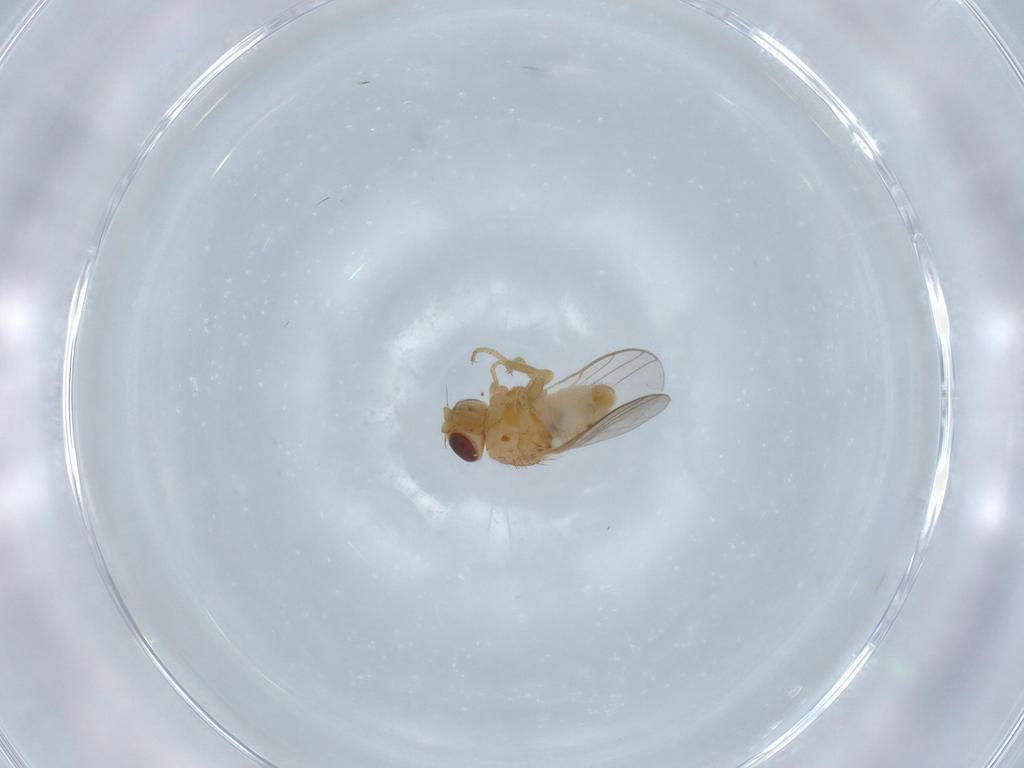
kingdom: Animalia
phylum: Arthropoda
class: Insecta
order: Diptera
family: Chloropidae
